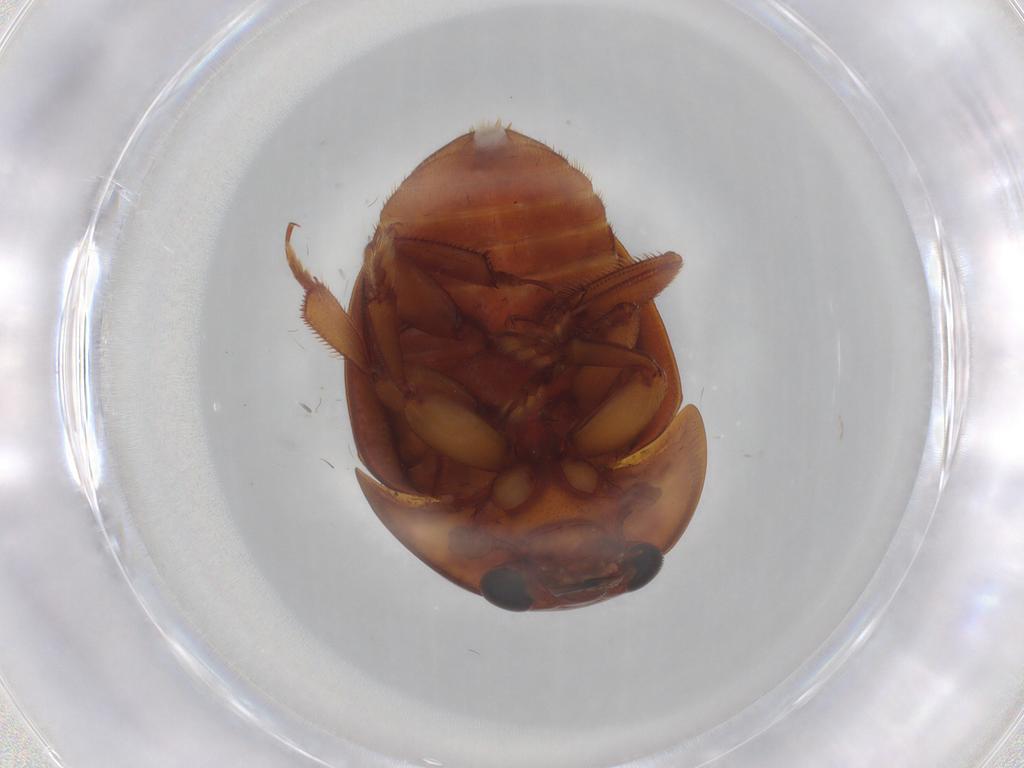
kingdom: Animalia
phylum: Arthropoda
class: Insecta
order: Coleoptera
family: Nitidulidae
